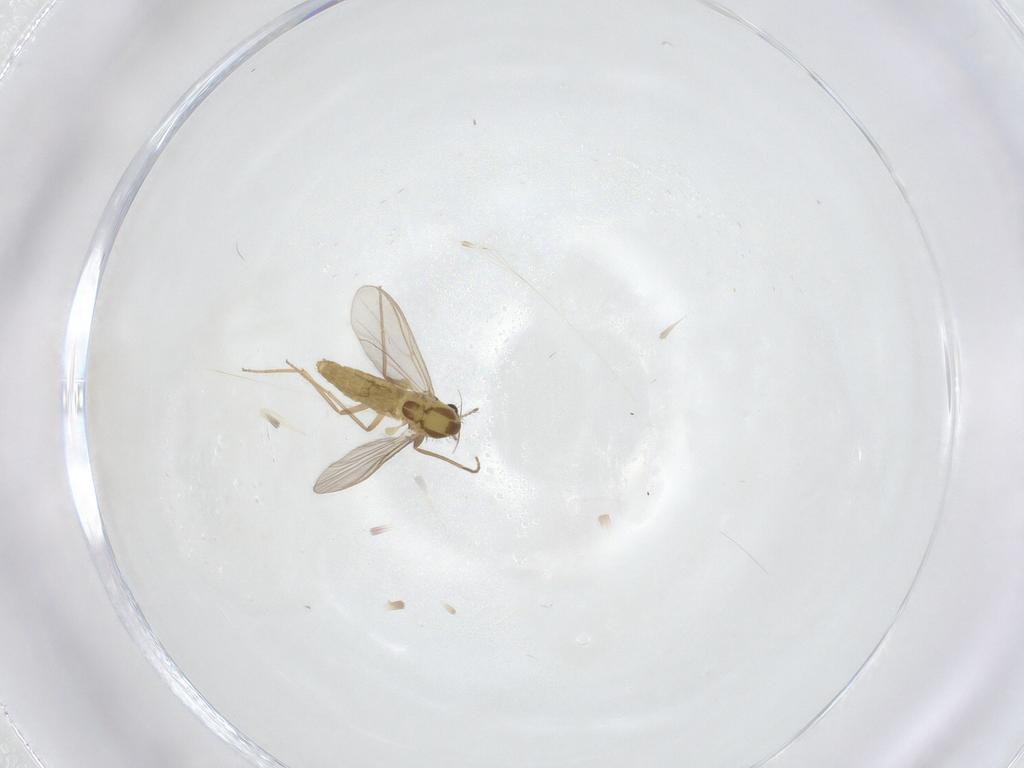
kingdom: Animalia
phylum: Arthropoda
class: Insecta
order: Diptera
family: Chironomidae
